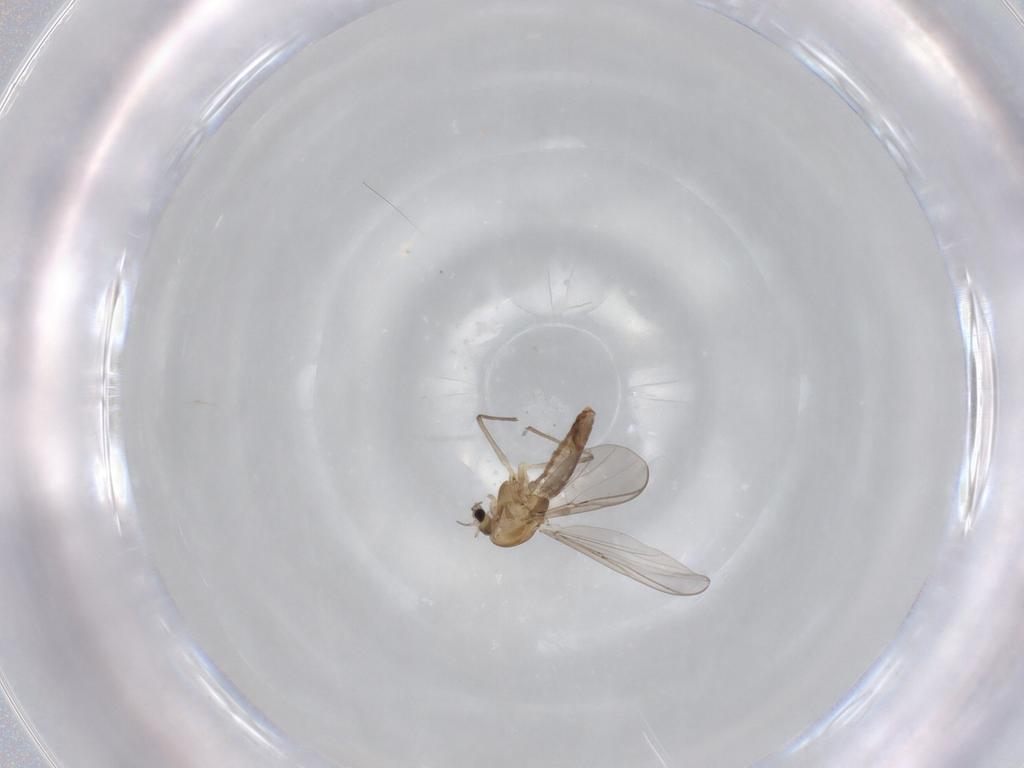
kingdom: Animalia
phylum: Arthropoda
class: Insecta
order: Diptera
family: Chironomidae
